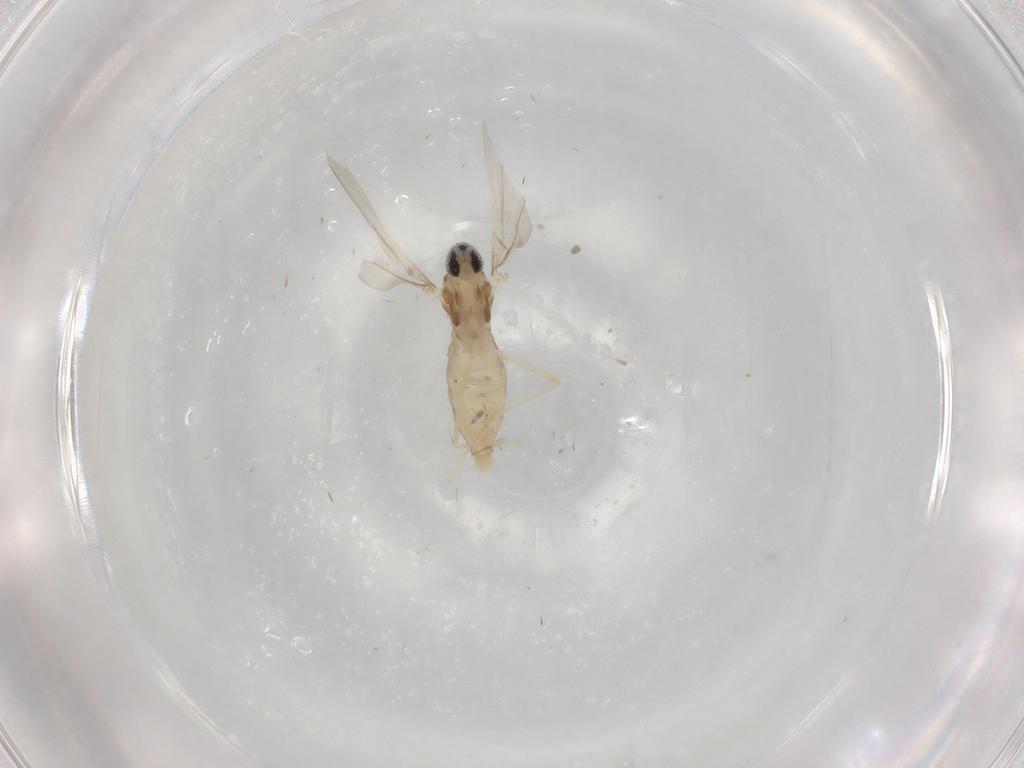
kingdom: Animalia
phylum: Arthropoda
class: Insecta
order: Diptera
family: Cecidomyiidae
